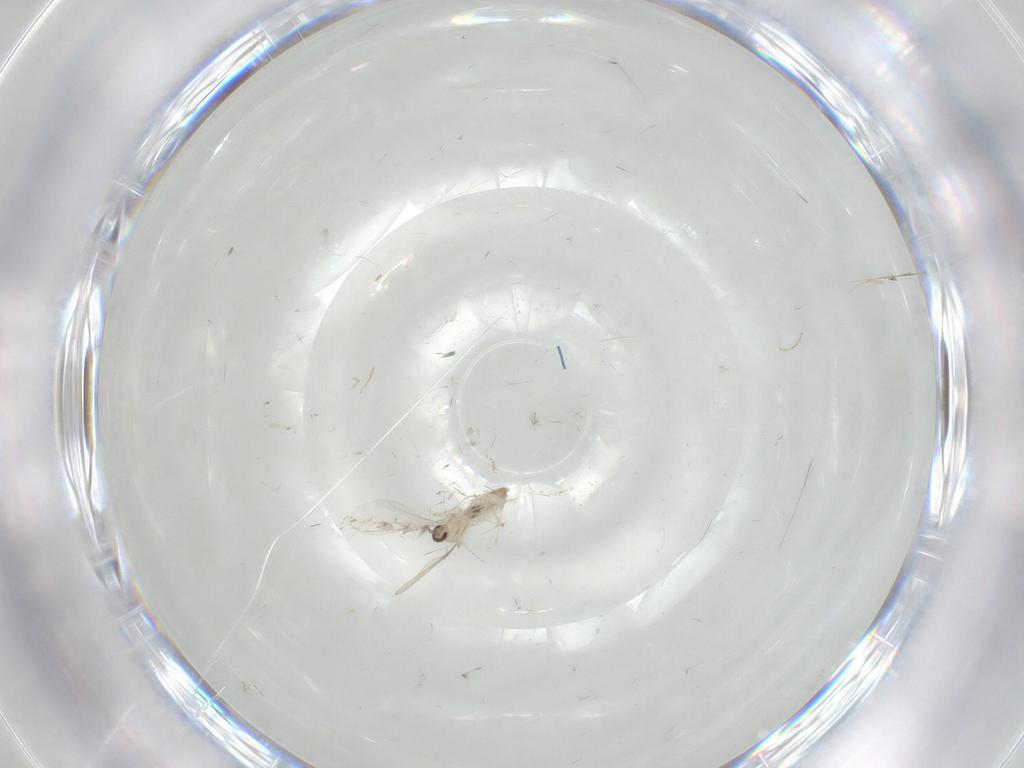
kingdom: Animalia
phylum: Arthropoda
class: Insecta
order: Diptera
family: Cecidomyiidae
